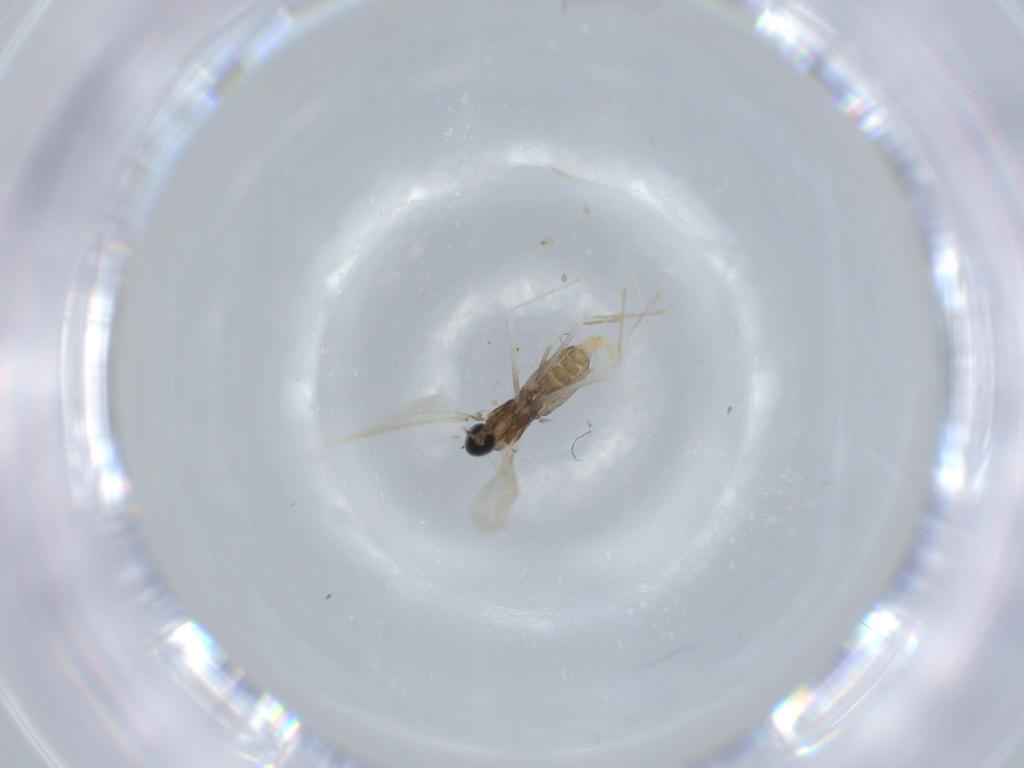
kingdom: Animalia
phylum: Arthropoda
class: Insecta
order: Diptera
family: Cecidomyiidae
